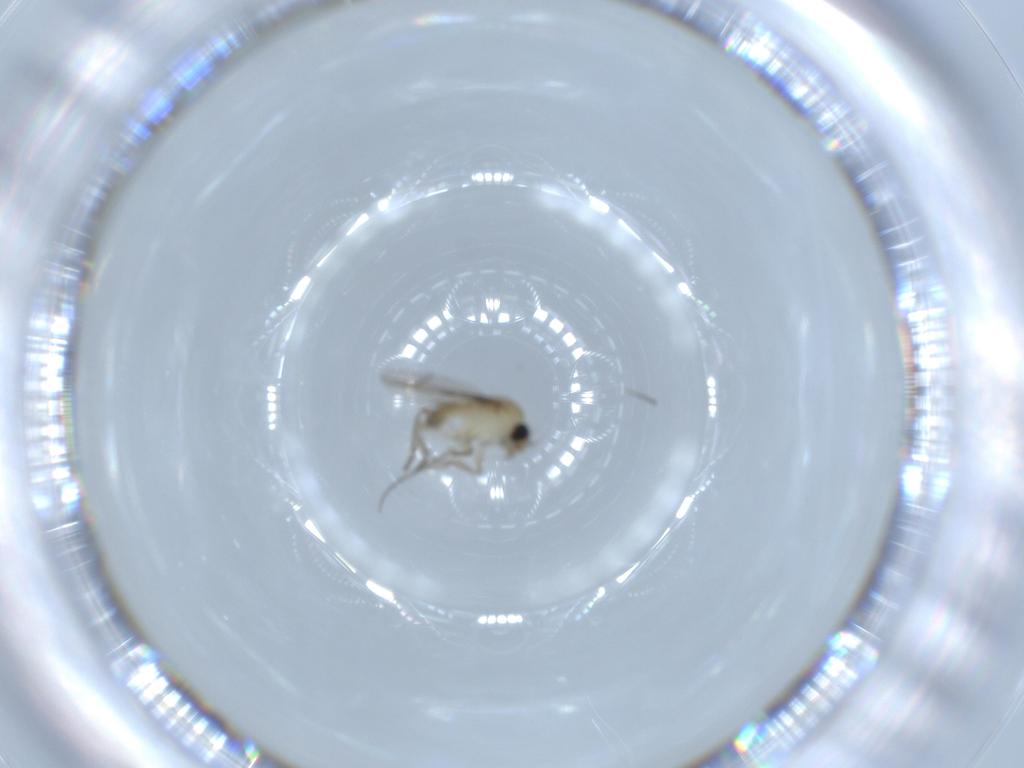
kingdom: Animalia
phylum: Arthropoda
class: Insecta
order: Diptera
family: Phoridae
